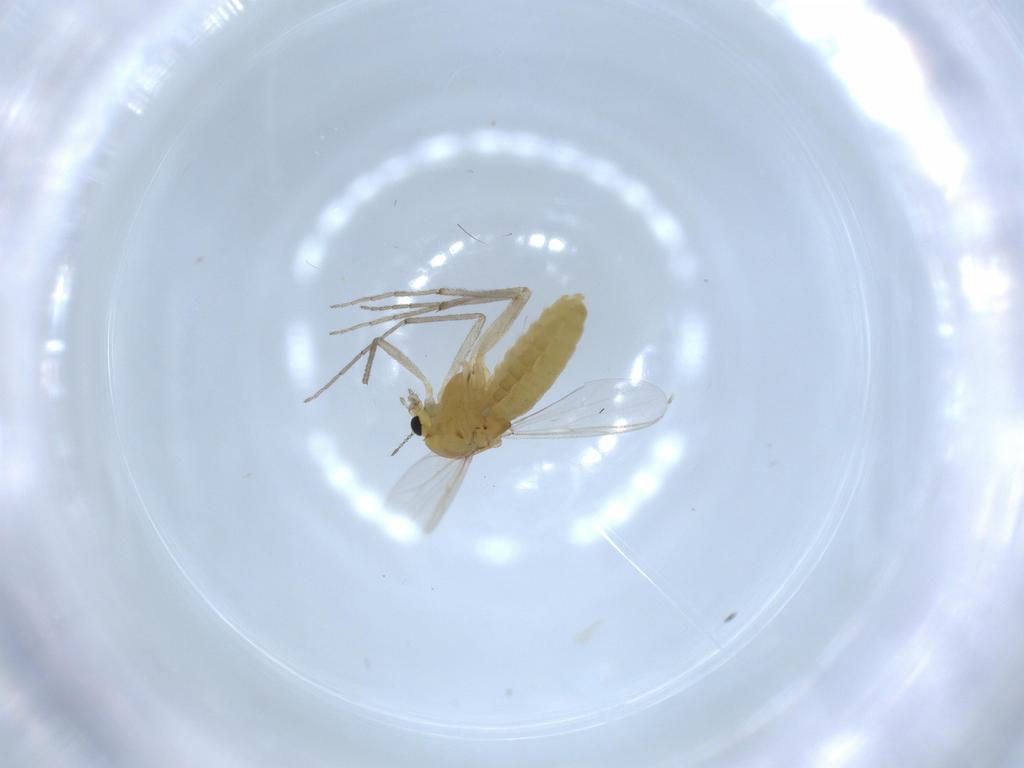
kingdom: Animalia
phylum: Arthropoda
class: Insecta
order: Diptera
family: Chironomidae
